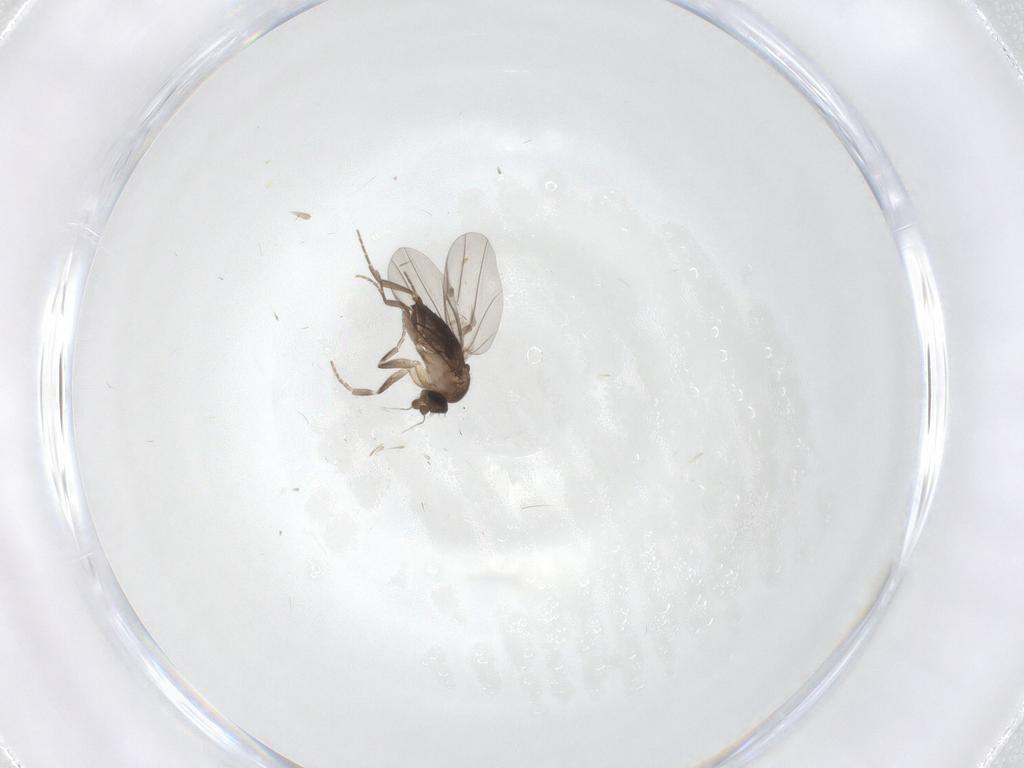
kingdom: Animalia
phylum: Arthropoda
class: Insecta
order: Diptera
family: Phoridae
